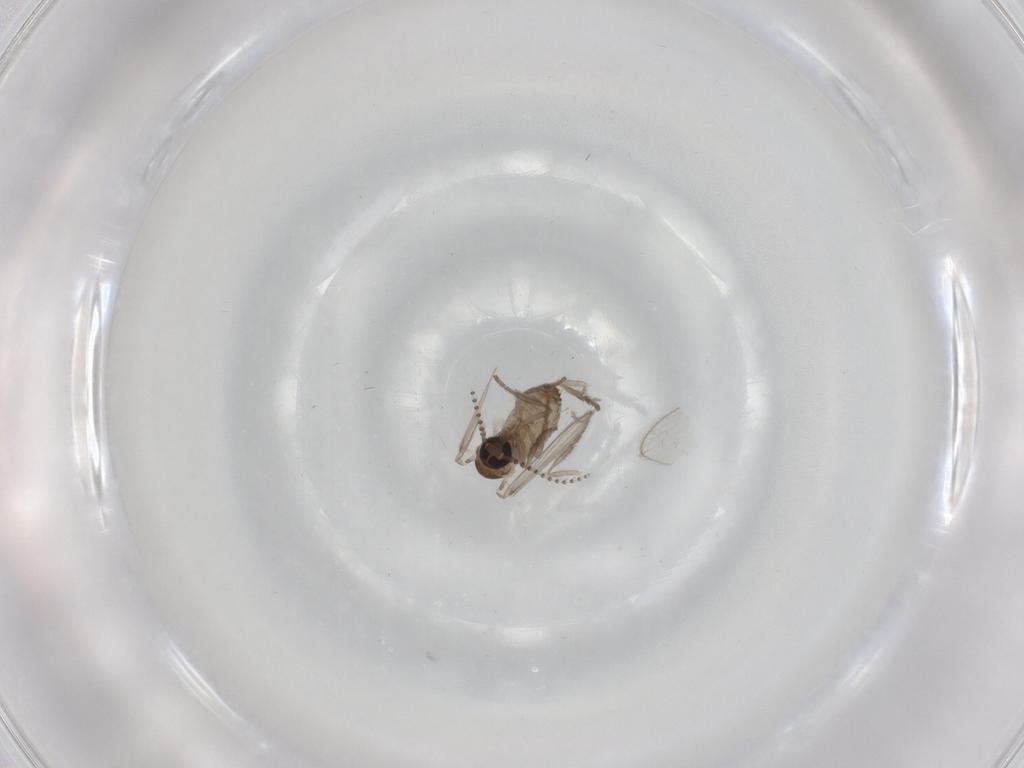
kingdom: Animalia
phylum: Arthropoda
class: Insecta
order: Diptera
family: Psychodidae
